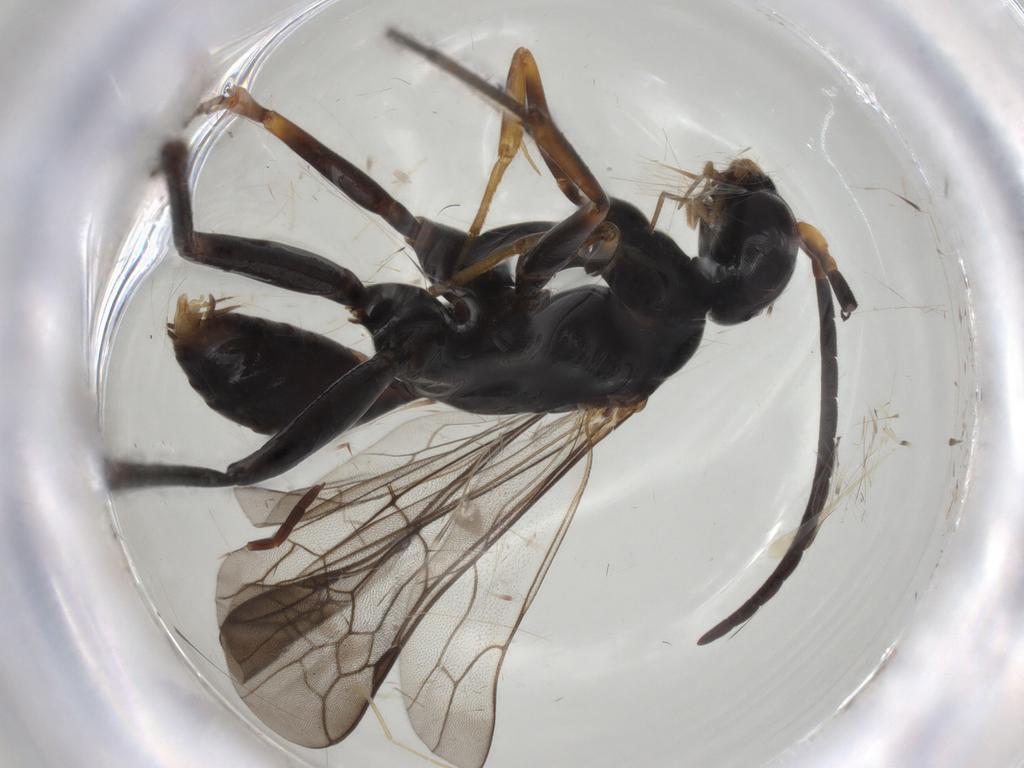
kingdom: Animalia
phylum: Arthropoda
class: Insecta
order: Hymenoptera
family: Formicidae
